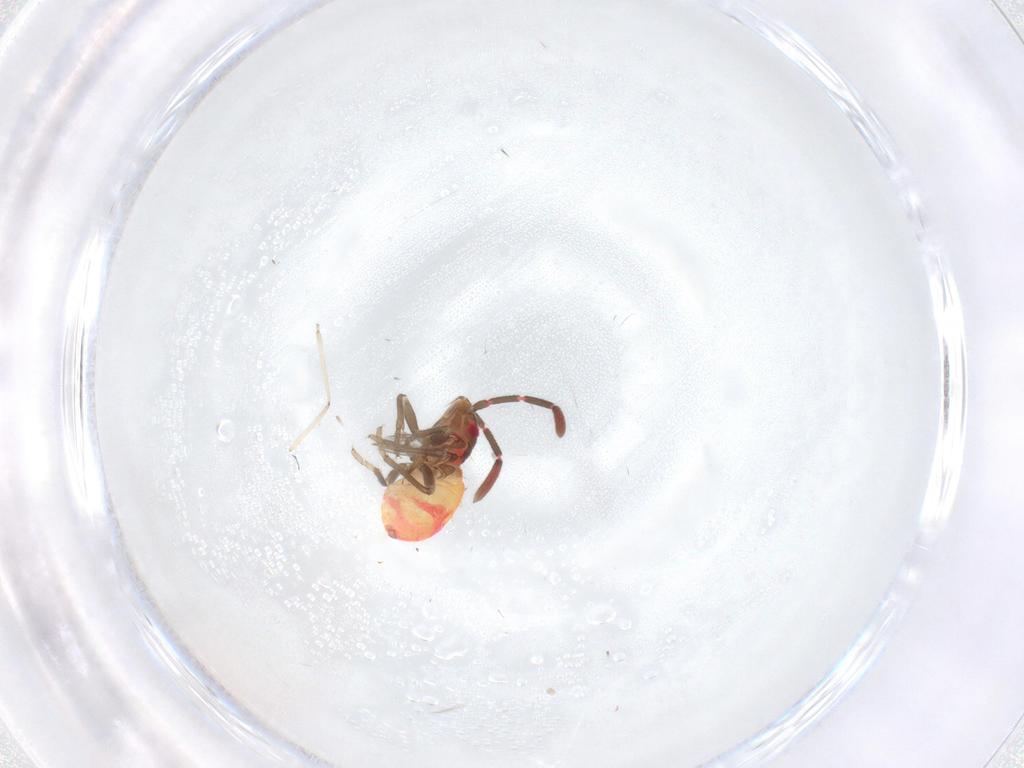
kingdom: Animalia
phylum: Arthropoda
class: Insecta
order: Hemiptera
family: Rhyparochromidae
